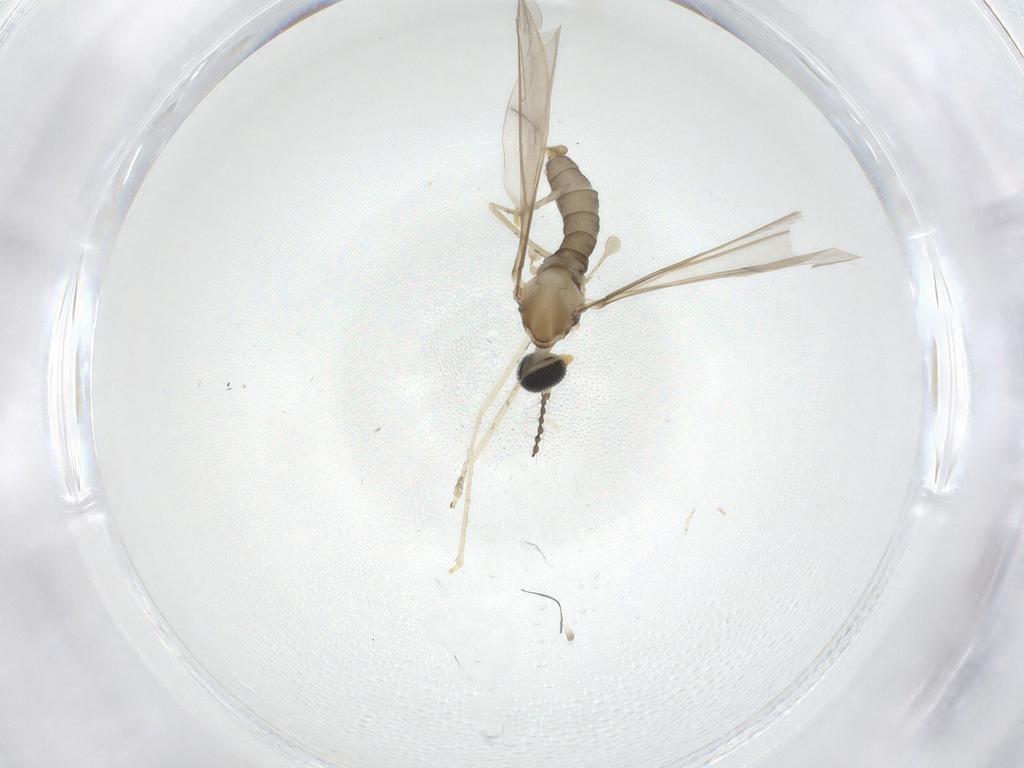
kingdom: Animalia
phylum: Arthropoda
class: Insecta
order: Diptera
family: Cecidomyiidae
